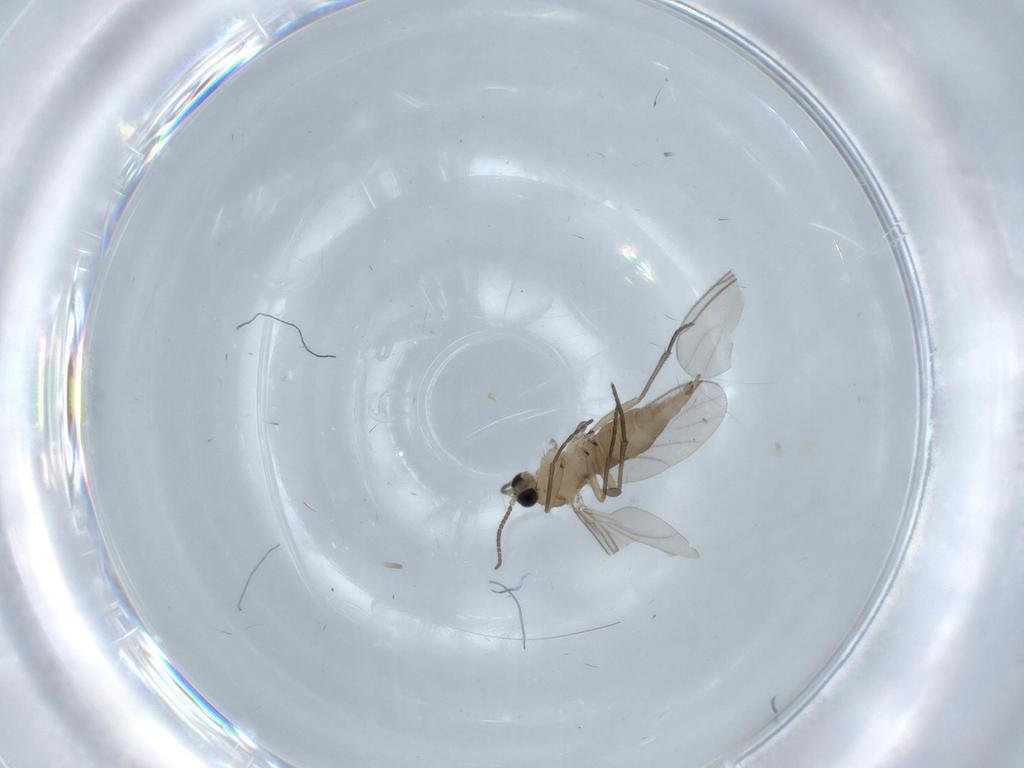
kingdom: Animalia
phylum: Arthropoda
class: Insecta
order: Diptera
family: Sciaridae
